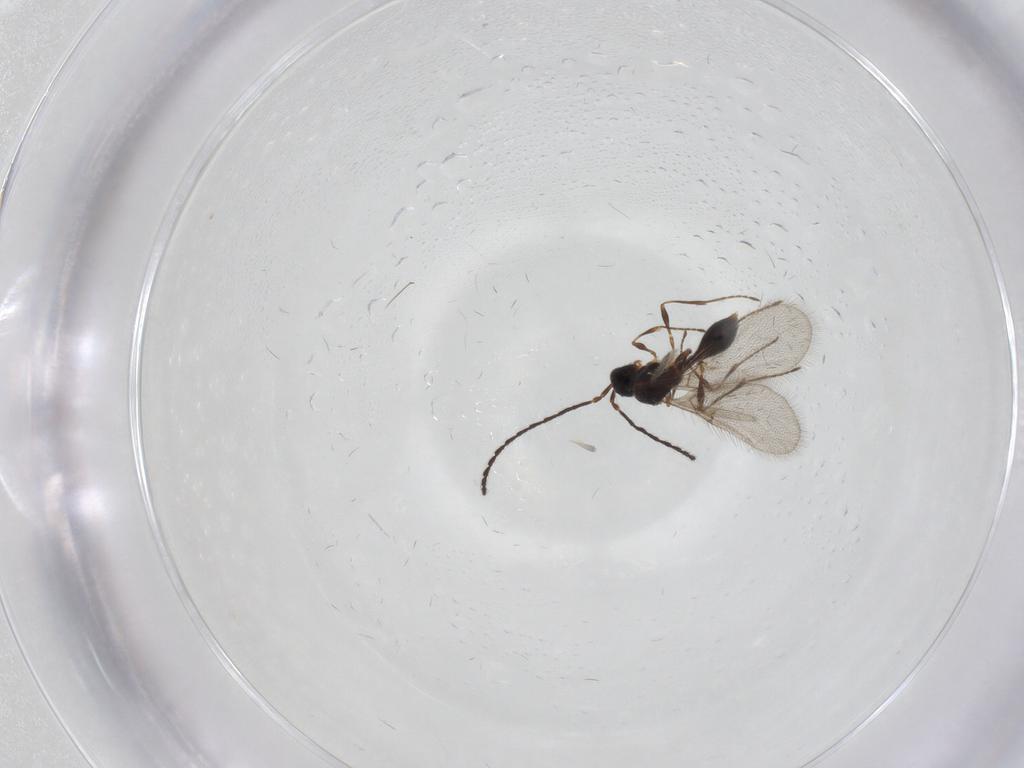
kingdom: Animalia
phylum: Arthropoda
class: Insecta
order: Hymenoptera
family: Diapriidae
